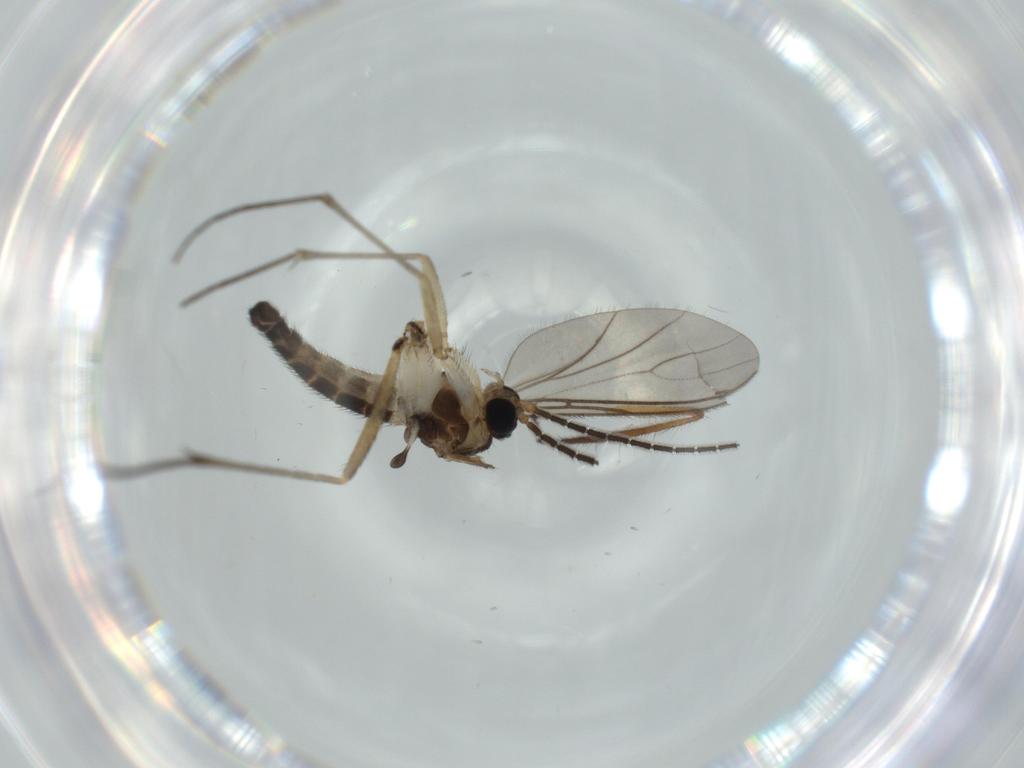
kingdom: Animalia
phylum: Arthropoda
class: Insecta
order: Diptera
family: Sciaridae
